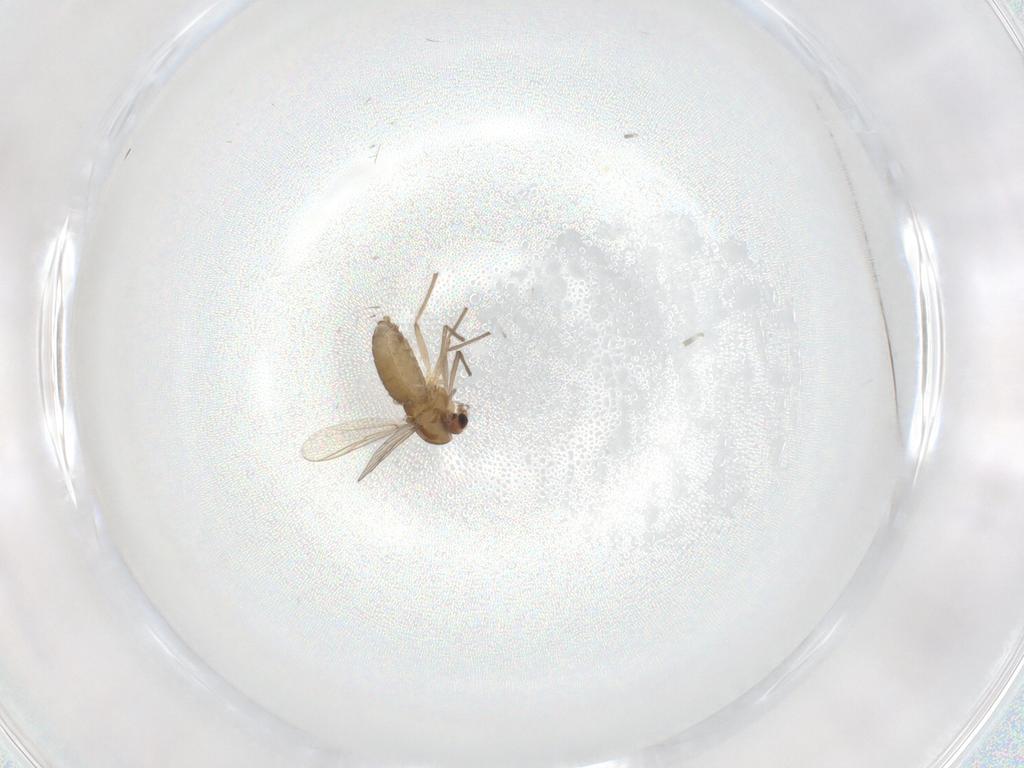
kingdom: Animalia
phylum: Arthropoda
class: Insecta
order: Diptera
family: Chironomidae
